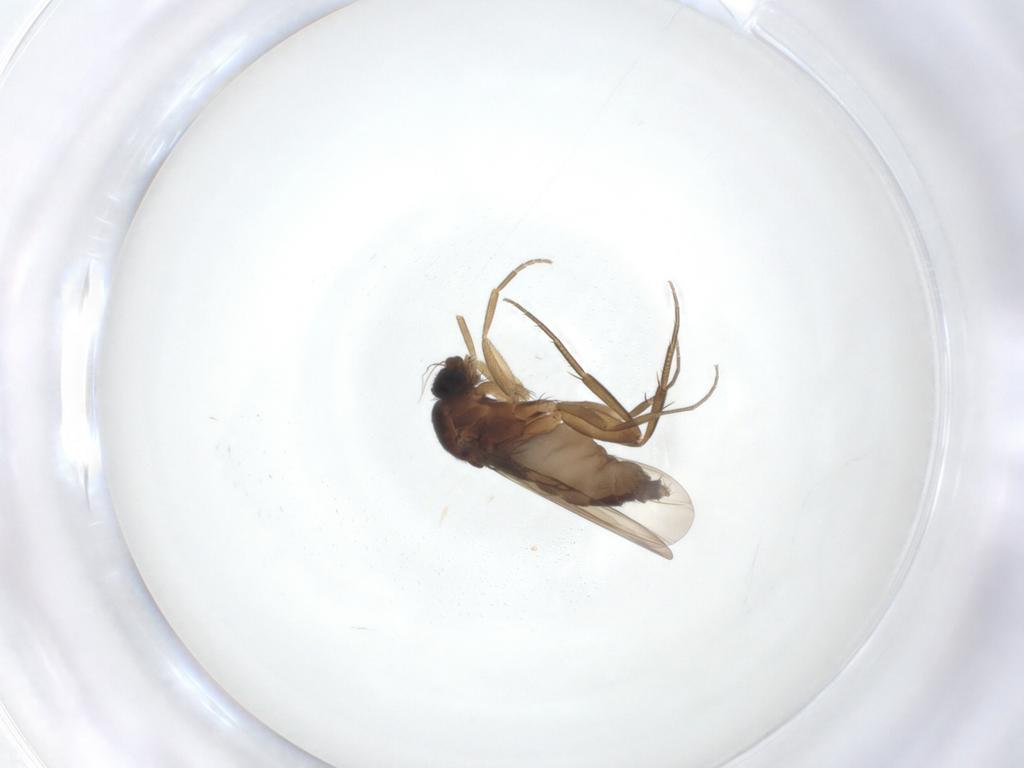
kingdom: Animalia
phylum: Arthropoda
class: Insecta
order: Diptera
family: Phoridae
